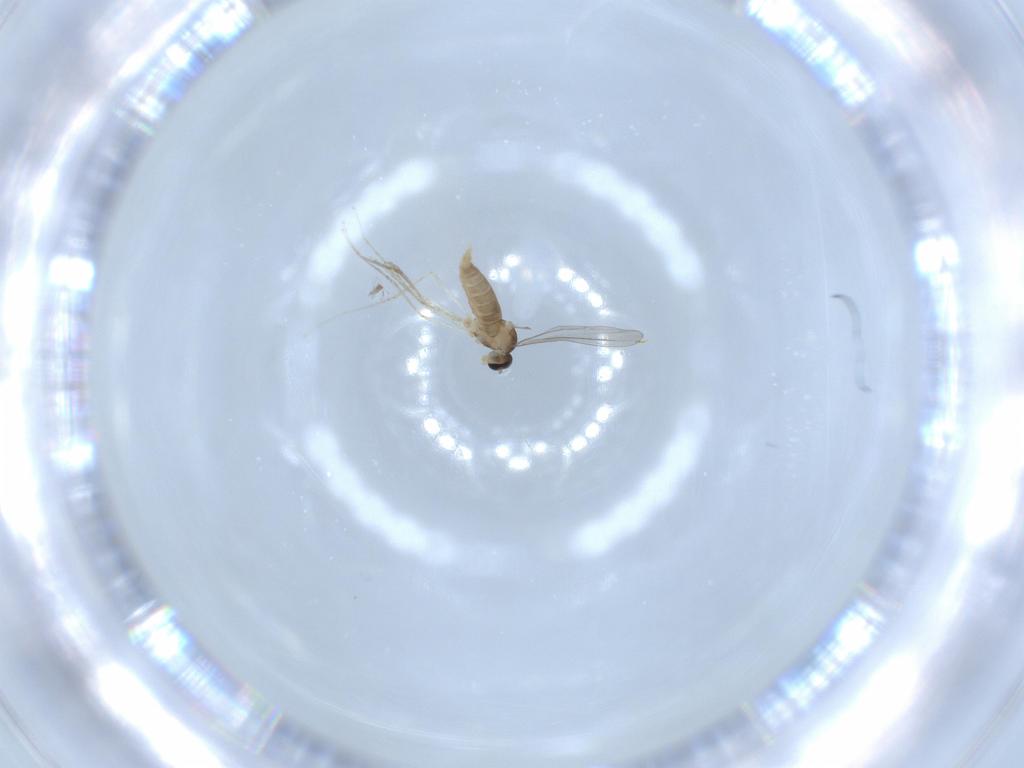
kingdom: Animalia
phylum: Arthropoda
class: Insecta
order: Diptera
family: Cecidomyiidae
